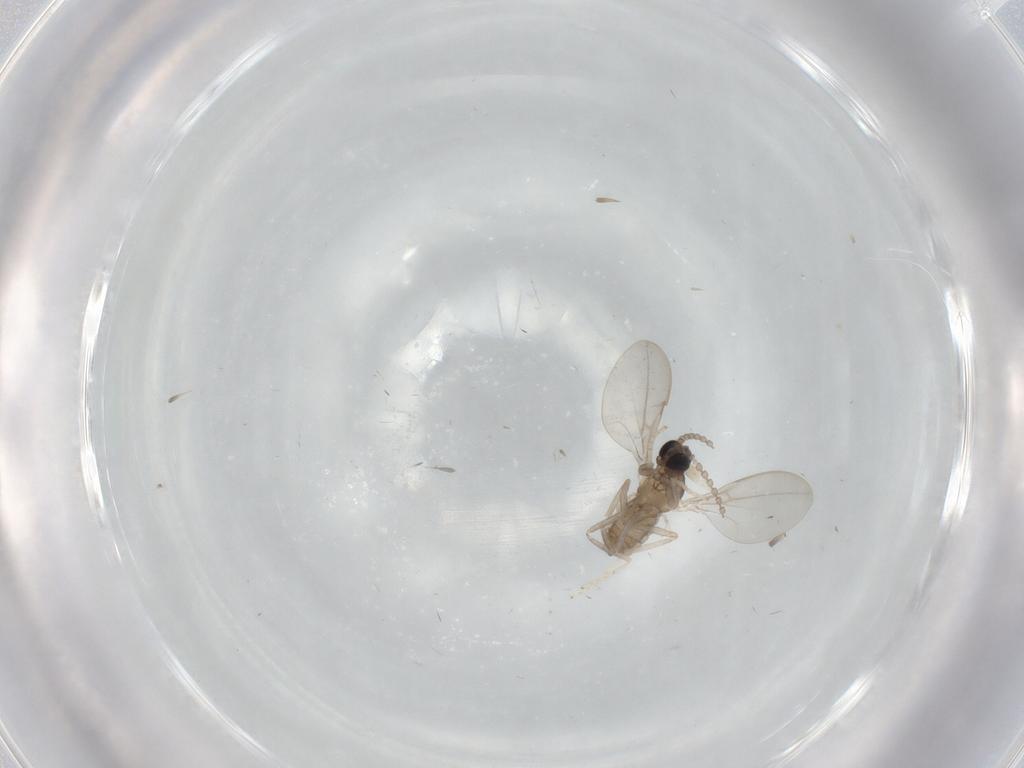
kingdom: Animalia
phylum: Arthropoda
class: Insecta
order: Diptera
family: Cecidomyiidae
